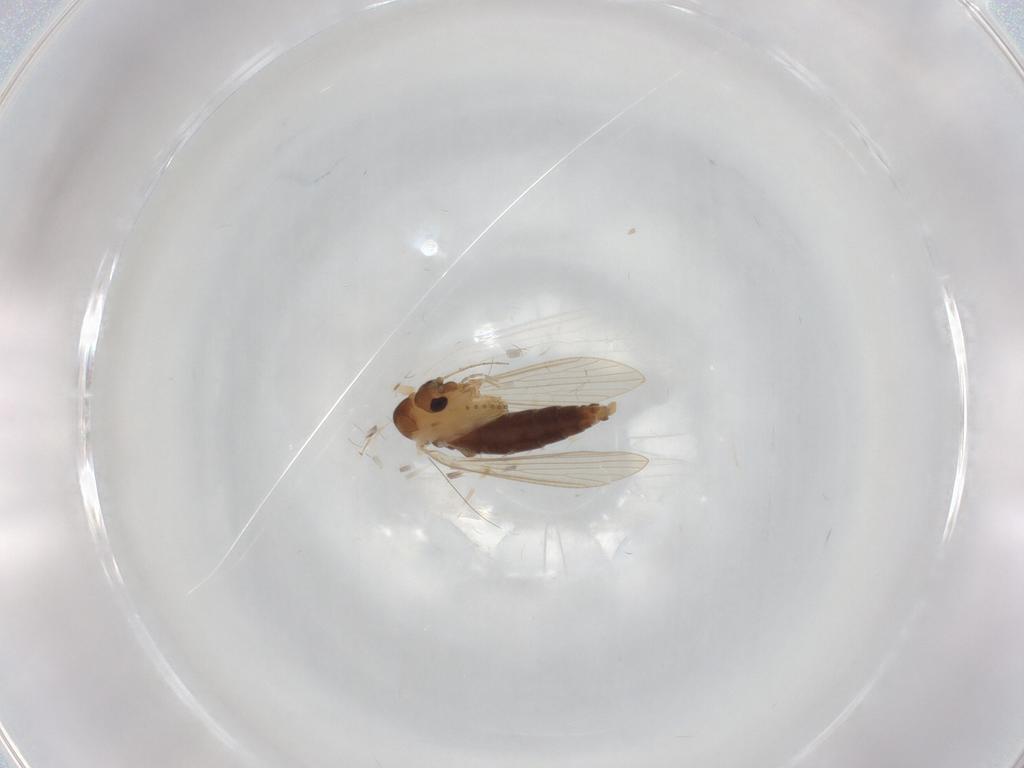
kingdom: Animalia
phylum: Arthropoda
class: Insecta
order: Diptera
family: Psychodidae
